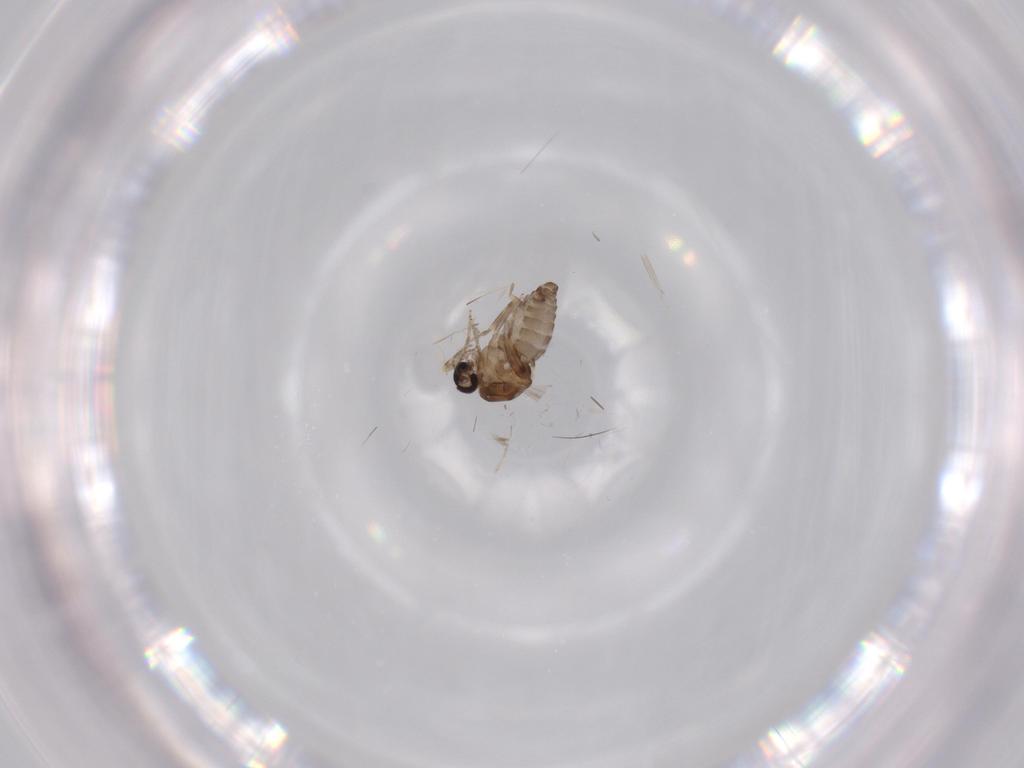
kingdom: Animalia
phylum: Arthropoda
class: Insecta
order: Diptera
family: Ceratopogonidae
